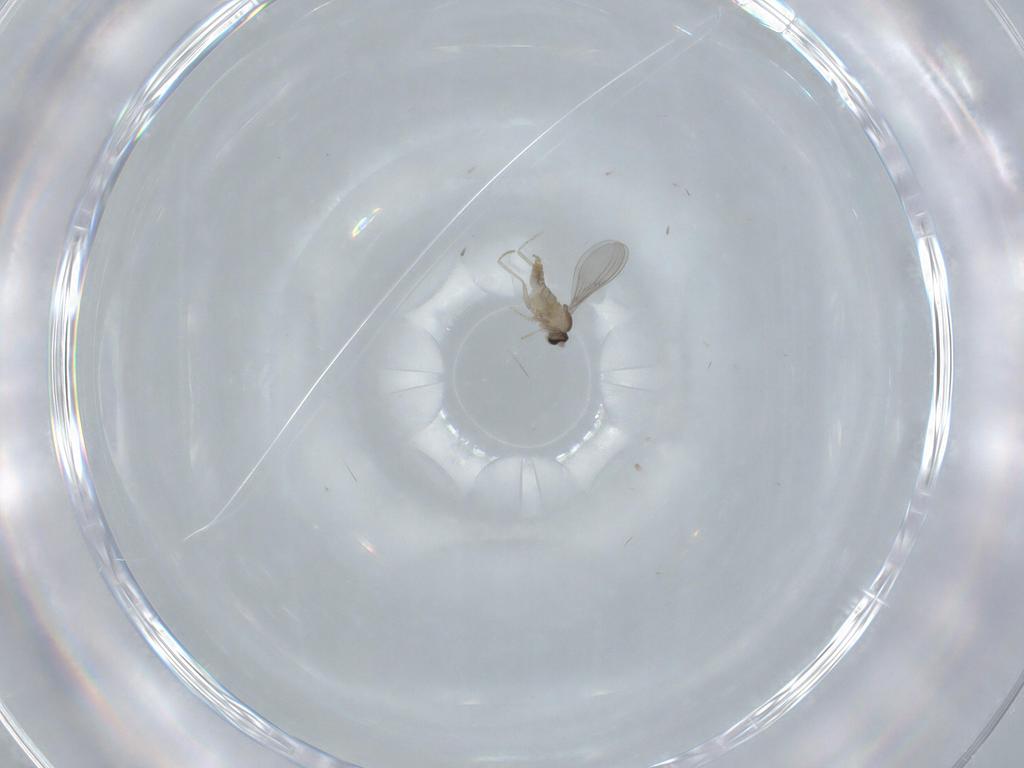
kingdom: Animalia
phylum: Arthropoda
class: Insecta
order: Diptera
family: Cecidomyiidae
